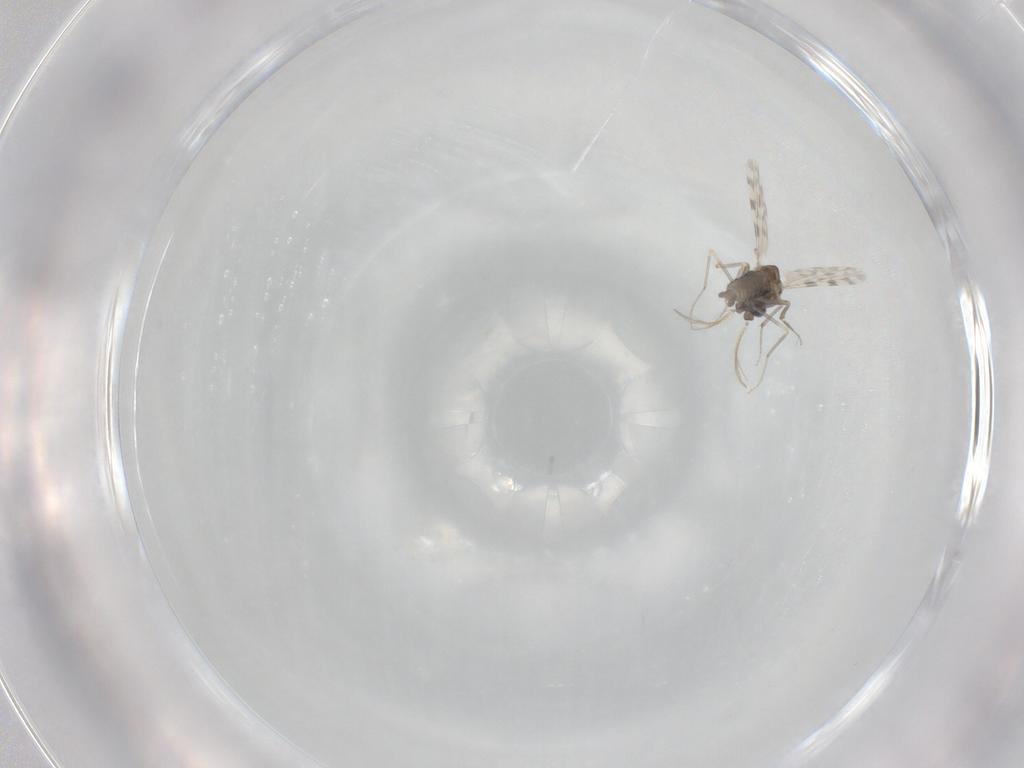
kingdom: Animalia
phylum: Arthropoda
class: Insecta
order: Diptera
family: Ceratopogonidae
